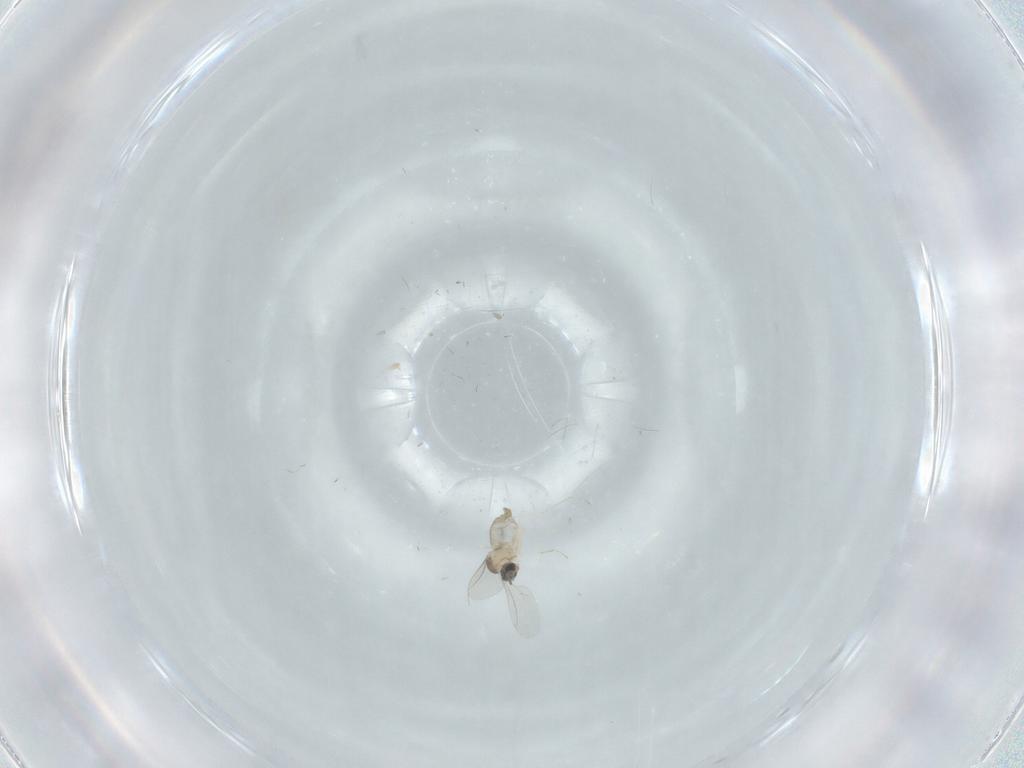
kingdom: Animalia
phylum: Arthropoda
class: Insecta
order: Diptera
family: Cecidomyiidae
